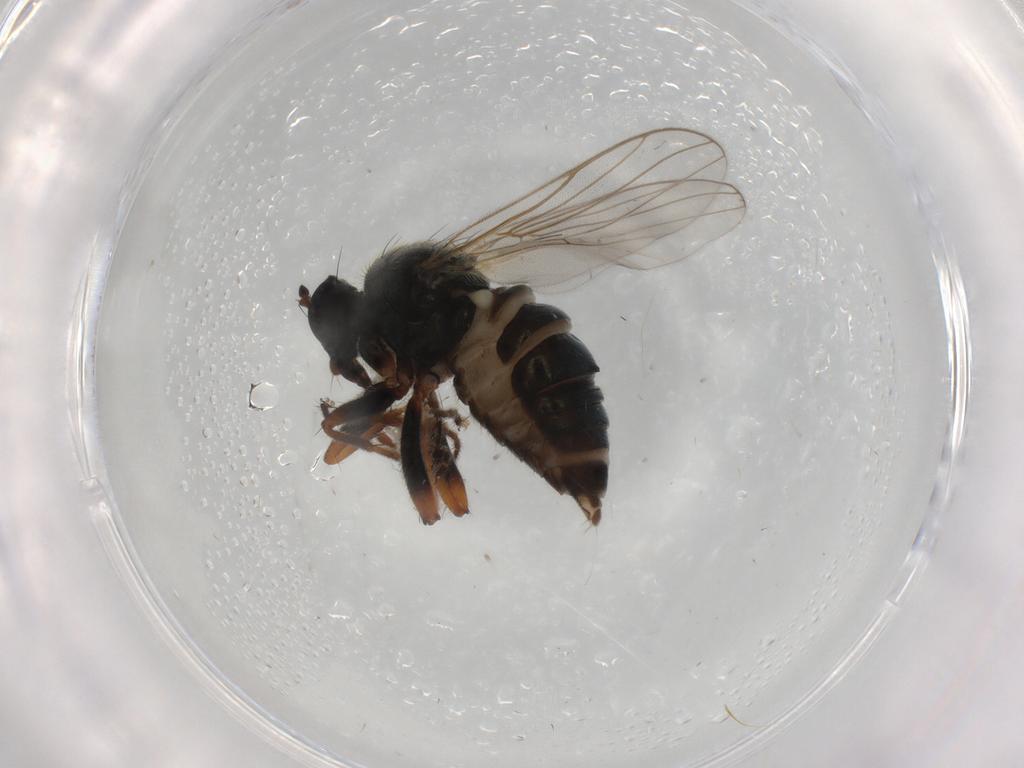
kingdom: Animalia
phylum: Arthropoda
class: Insecta
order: Diptera
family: Hybotidae
